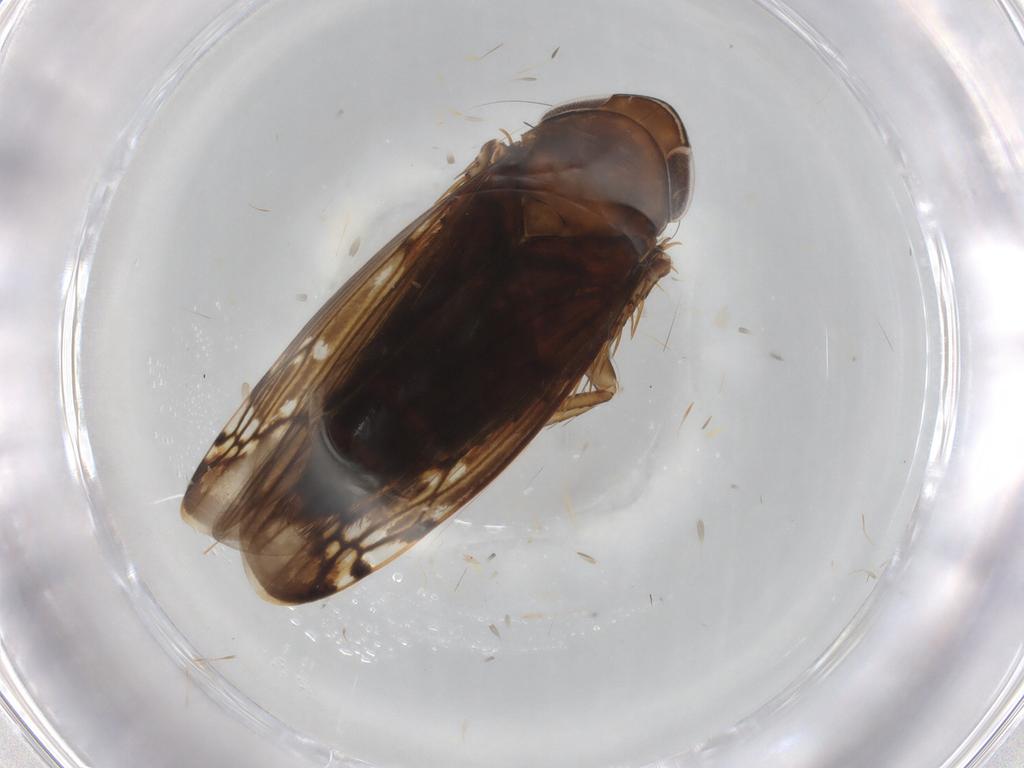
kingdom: Animalia
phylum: Arthropoda
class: Insecta
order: Hemiptera
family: Cicadellidae
